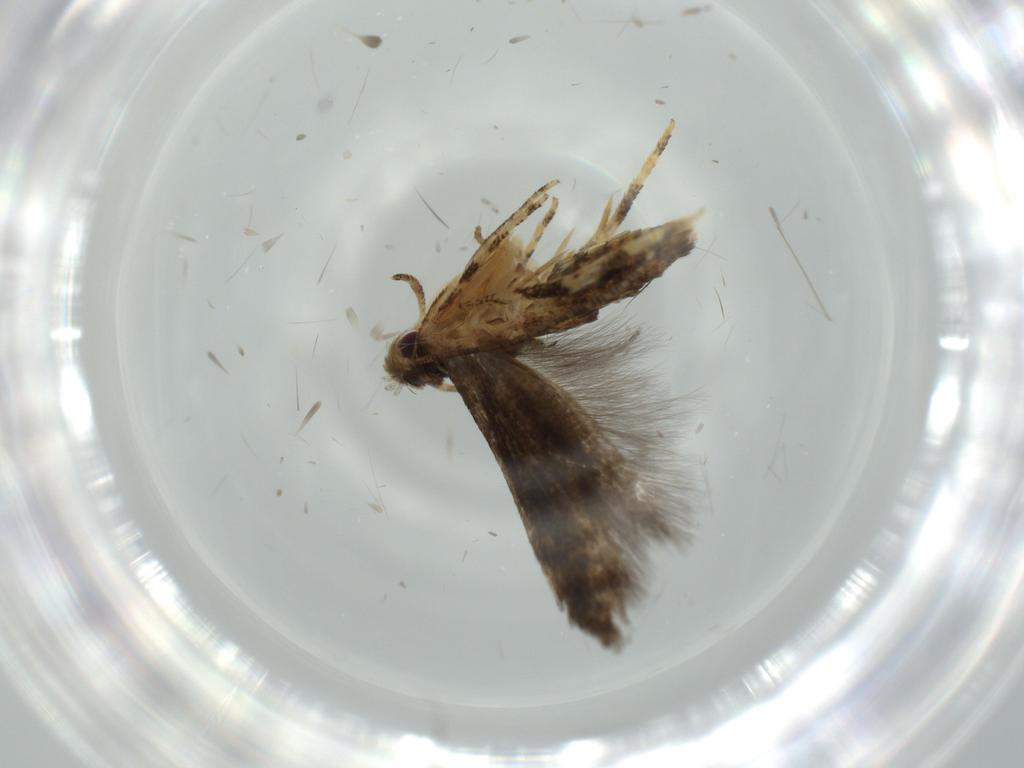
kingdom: Animalia
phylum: Arthropoda
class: Insecta
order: Lepidoptera
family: Momphidae
